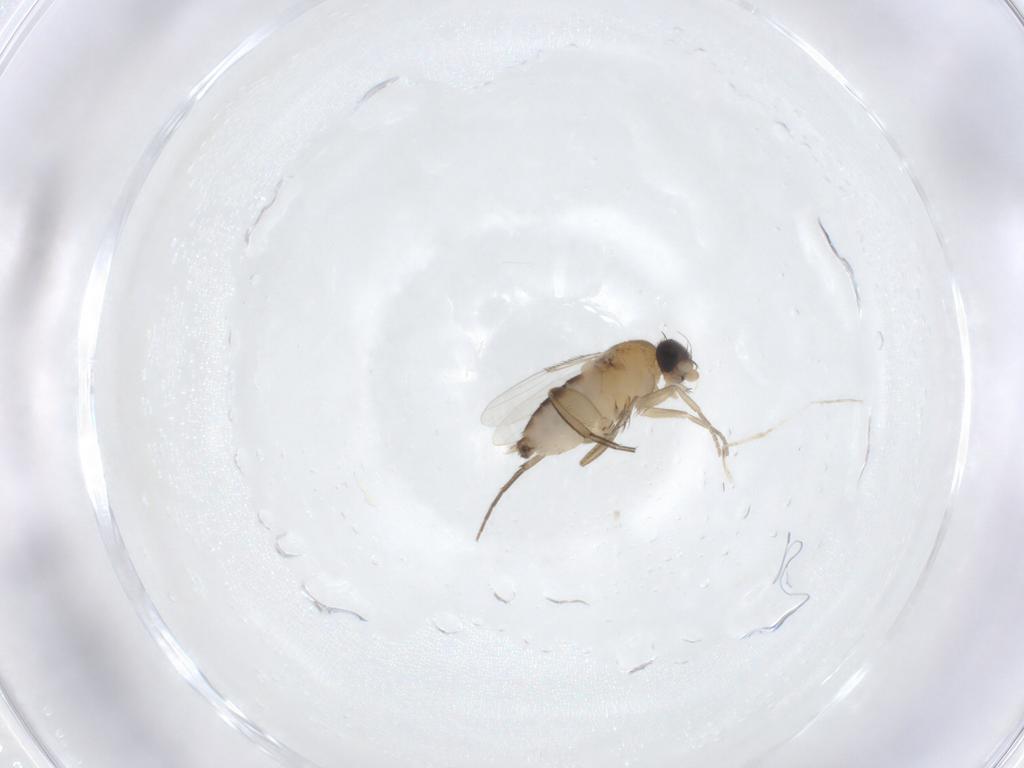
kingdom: Animalia
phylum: Arthropoda
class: Insecta
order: Diptera
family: Phoridae
